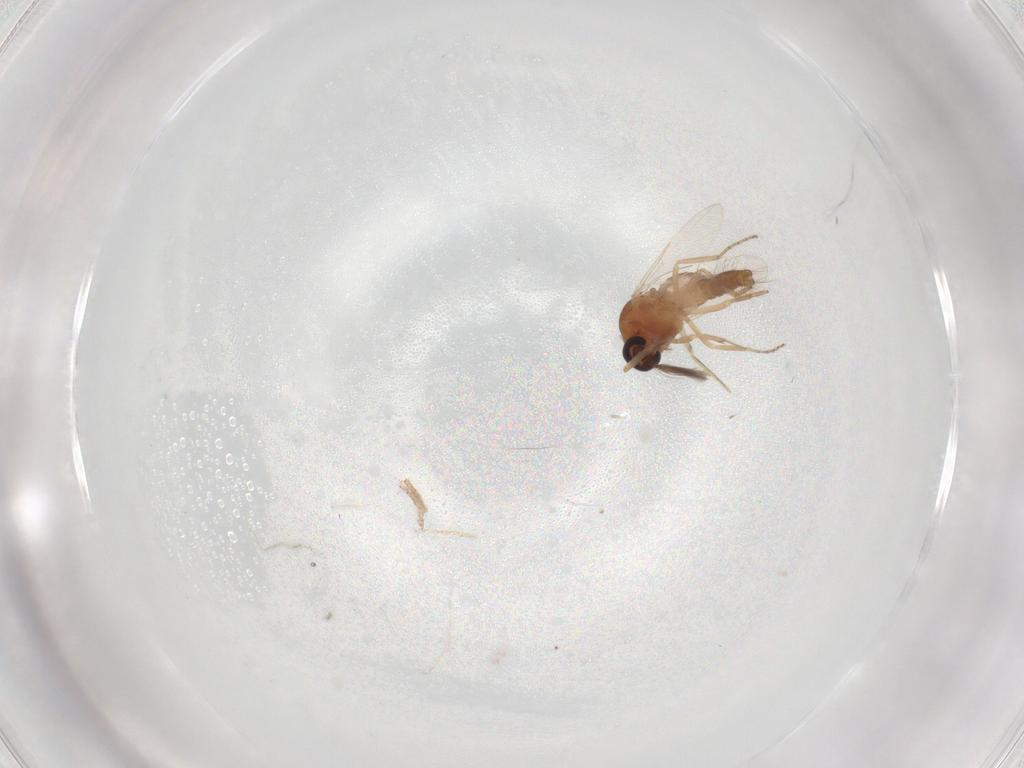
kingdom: Animalia
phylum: Arthropoda
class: Insecta
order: Diptera
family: Ceratopogonidae
